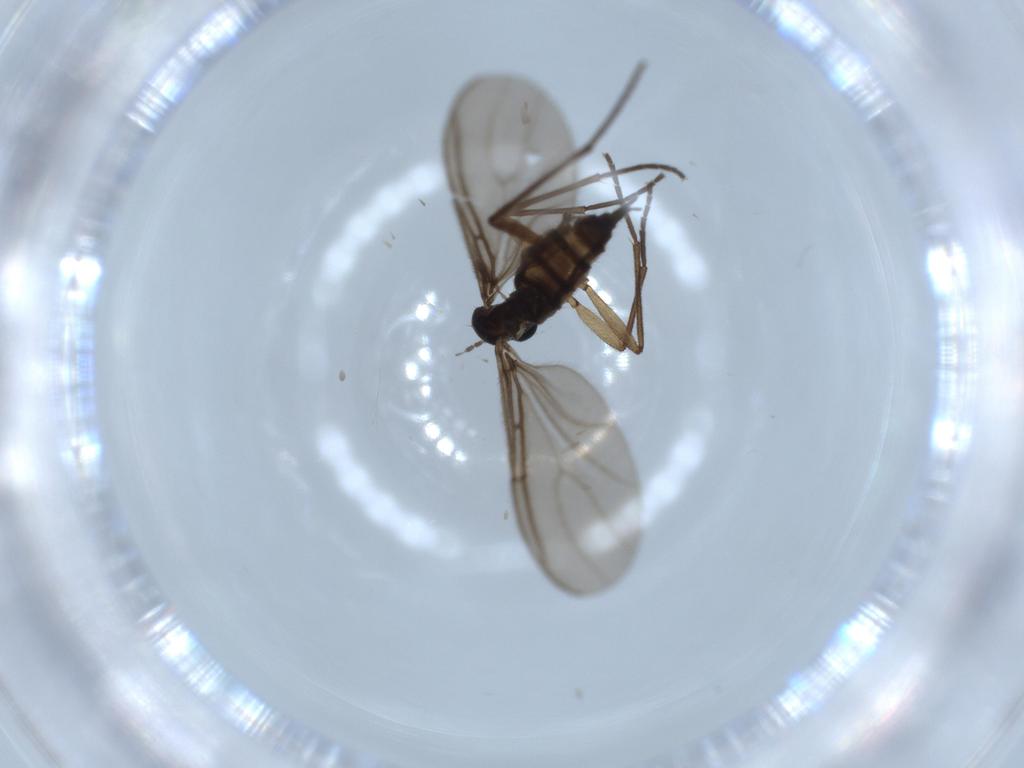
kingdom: Animalia
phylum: Arthropoda
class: Insecta
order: Diptera
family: Sciaridae
